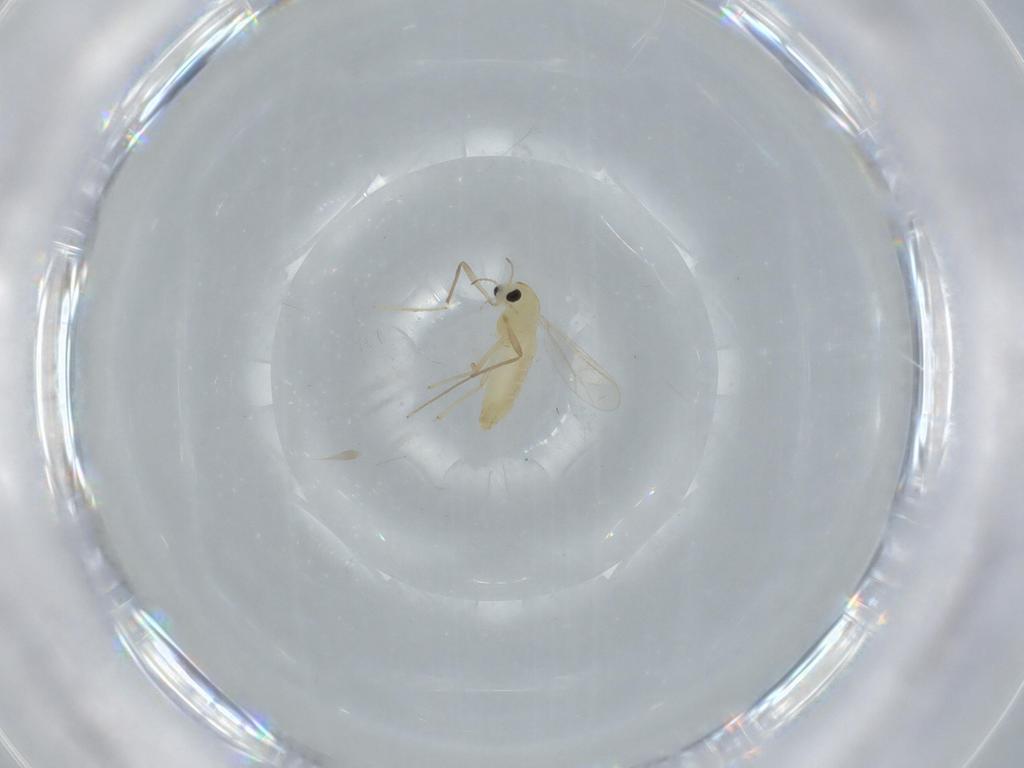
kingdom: Animalia
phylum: Arthropoda
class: Insecta
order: Diptera
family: Chironomidae
